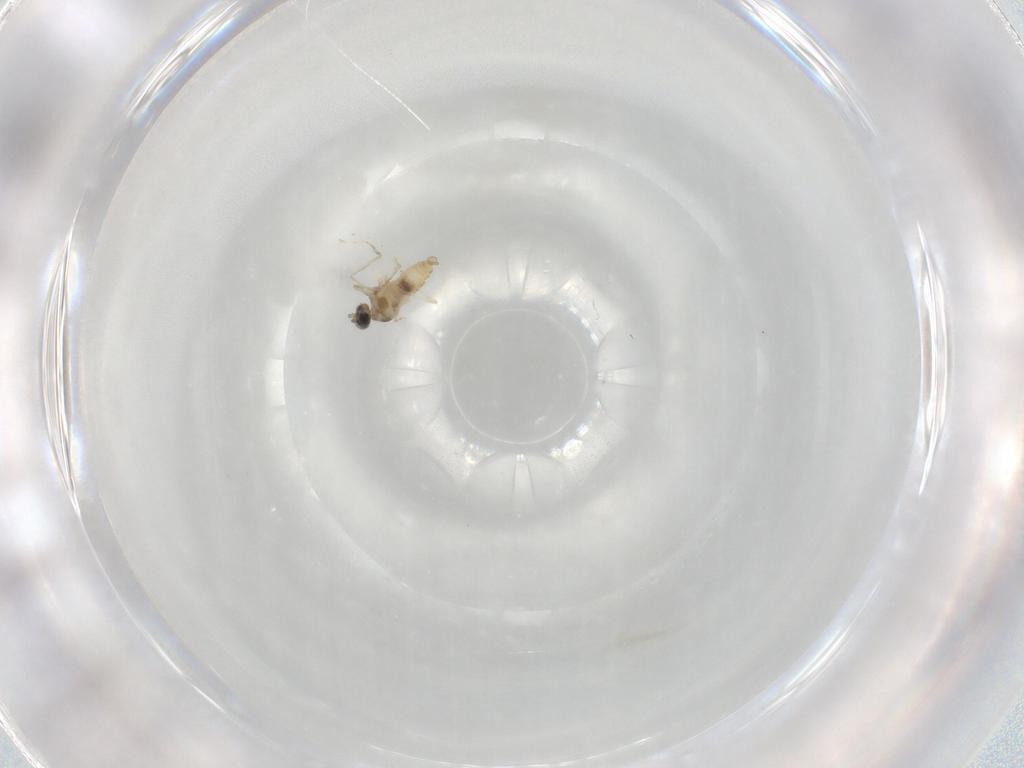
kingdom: Animalia
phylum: Arthropoda
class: Insecta
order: Diptera
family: Cecidomyiidae
